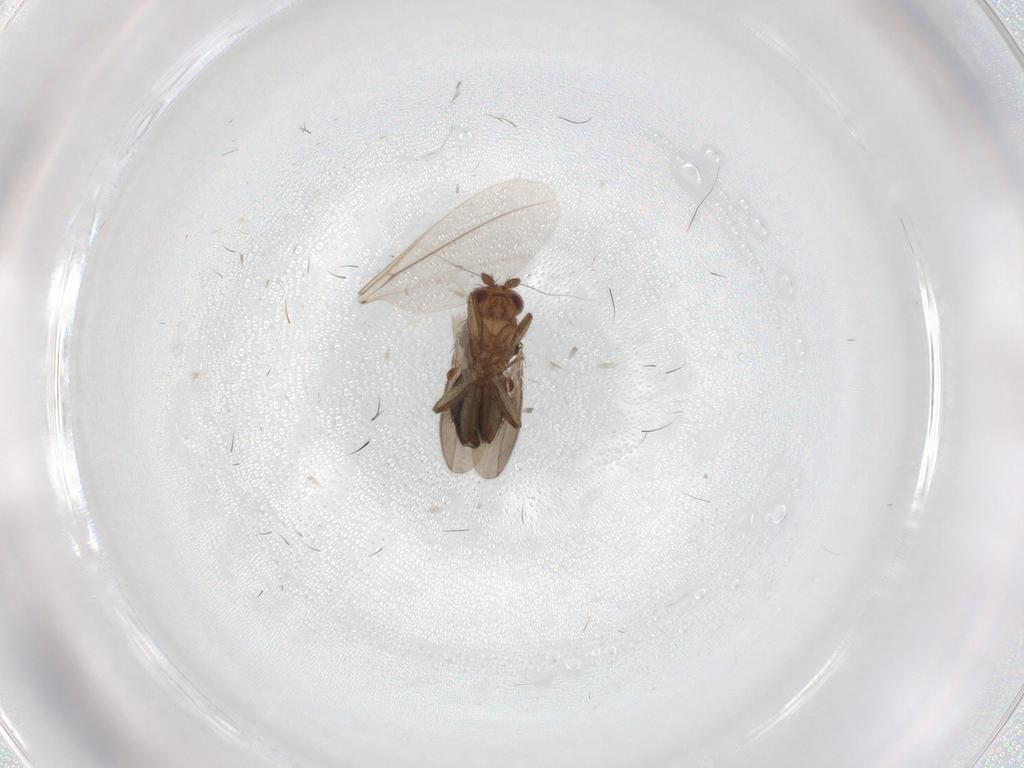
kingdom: Animalia
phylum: Arthropoda
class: Insecta
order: Diptera
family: Sphaeroceridae
